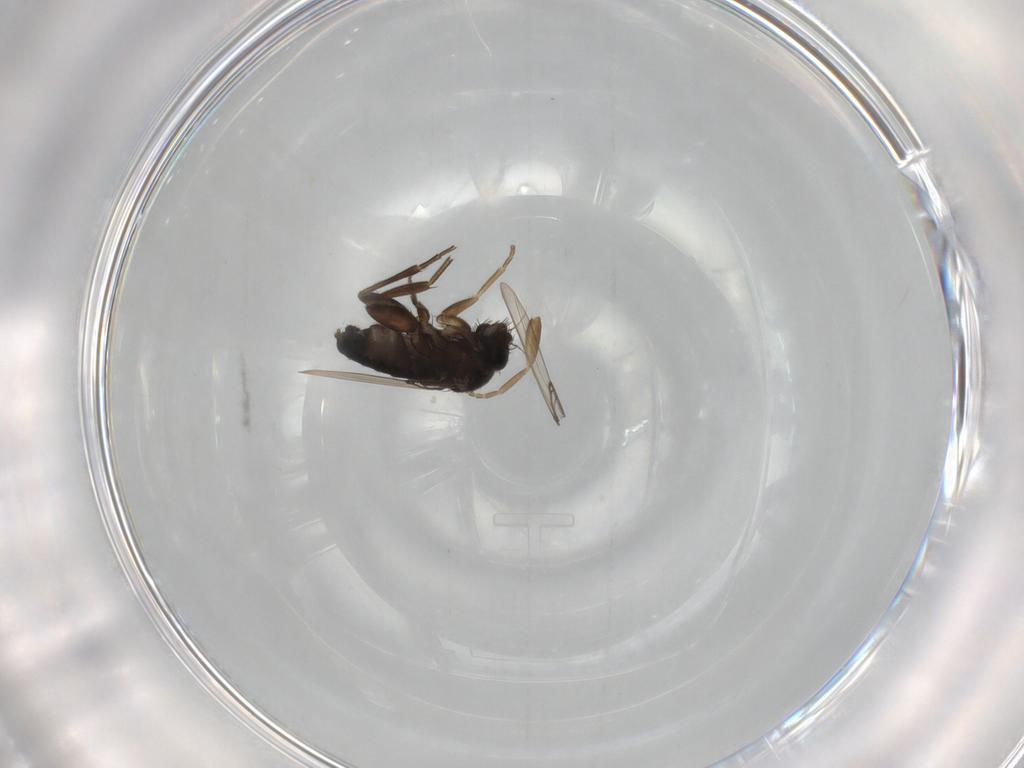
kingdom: Animalia
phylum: Arthropoda
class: Insecta
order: Diptera
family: Phoridae
